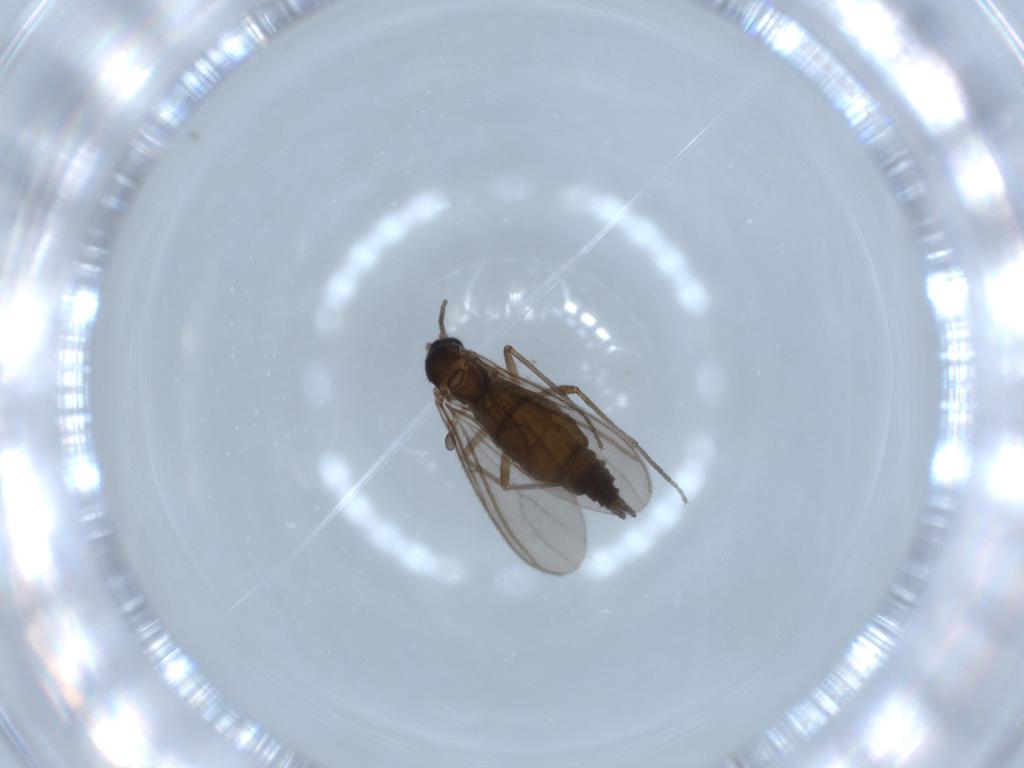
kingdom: Animalia
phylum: Arthropoda
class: Insecta
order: Diptera
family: Sciaridae
